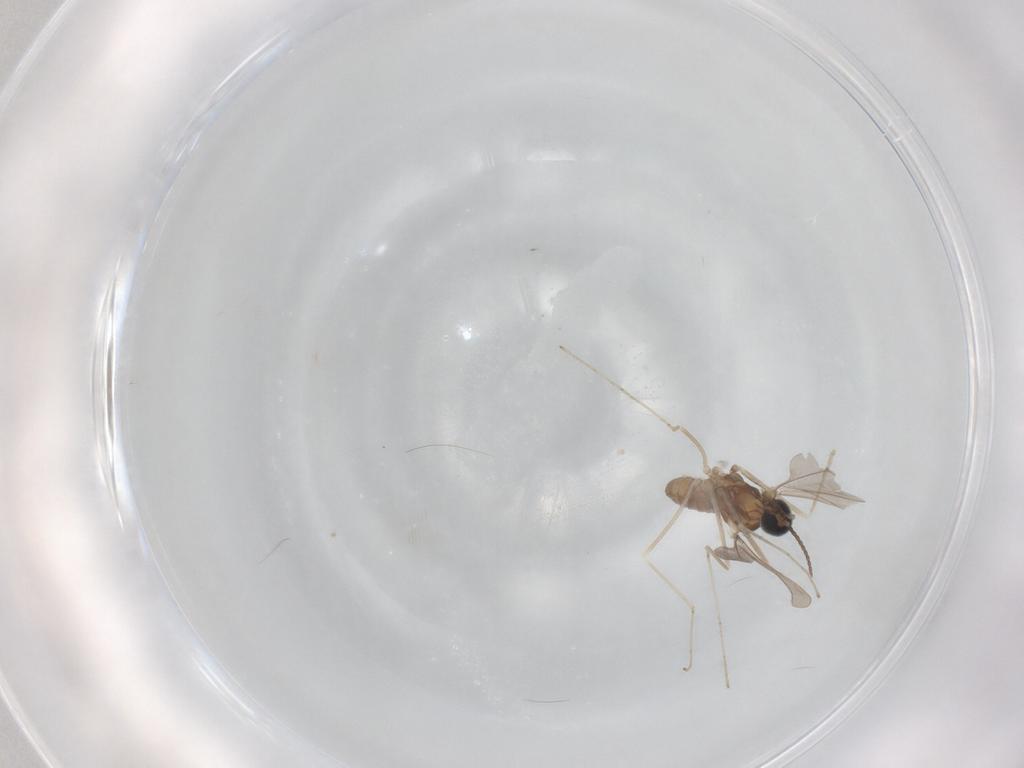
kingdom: Animalia
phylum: Arthropoda
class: Insecta
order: Diptera
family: Cecidomyiidae
